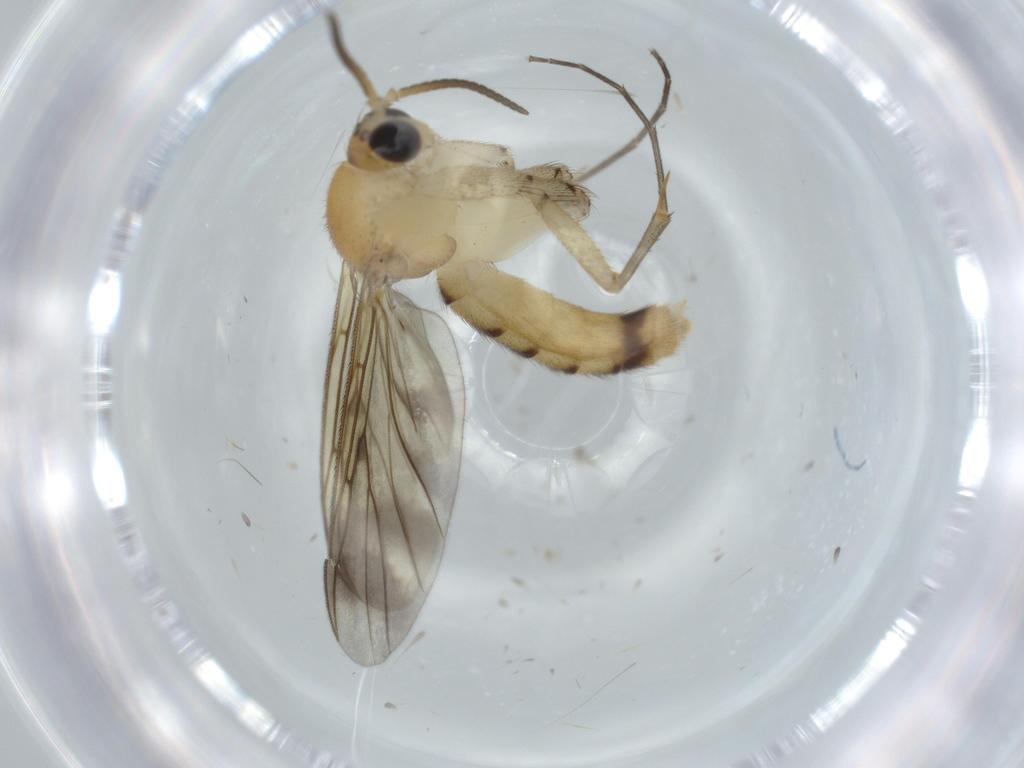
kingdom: Animalia
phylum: Arthropoda
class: Insecta
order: Diptera
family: Mycetophilidae
